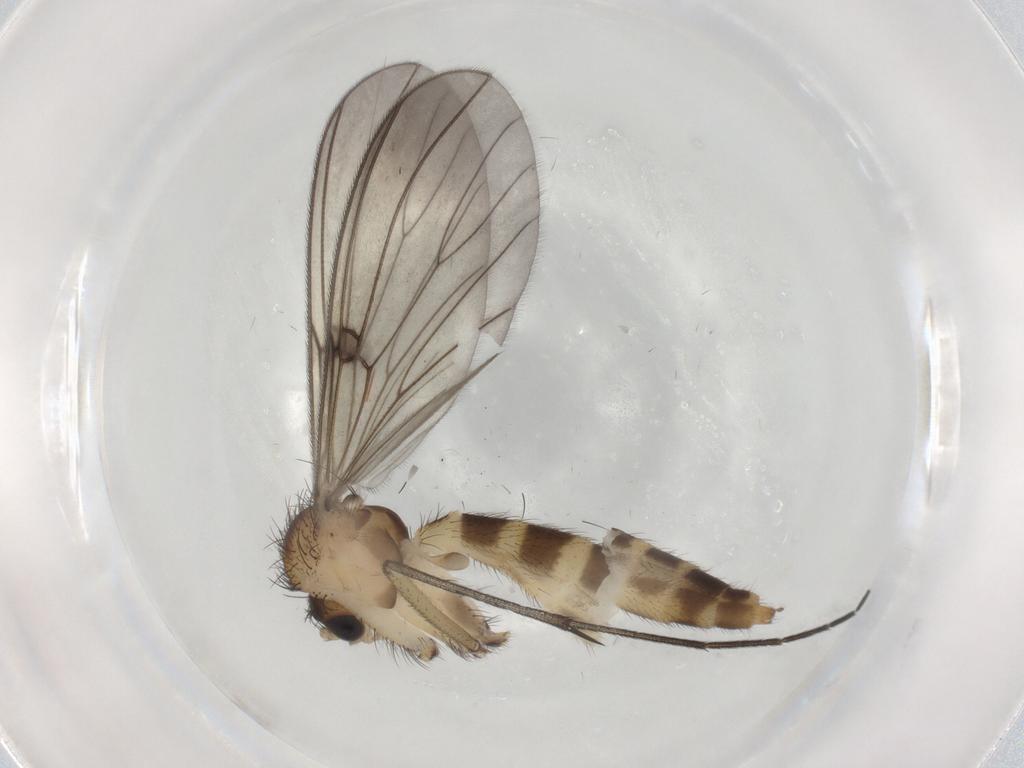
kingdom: Animalia
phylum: Arthropoda
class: Insecta
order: Diptera
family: Mycetophilidae
